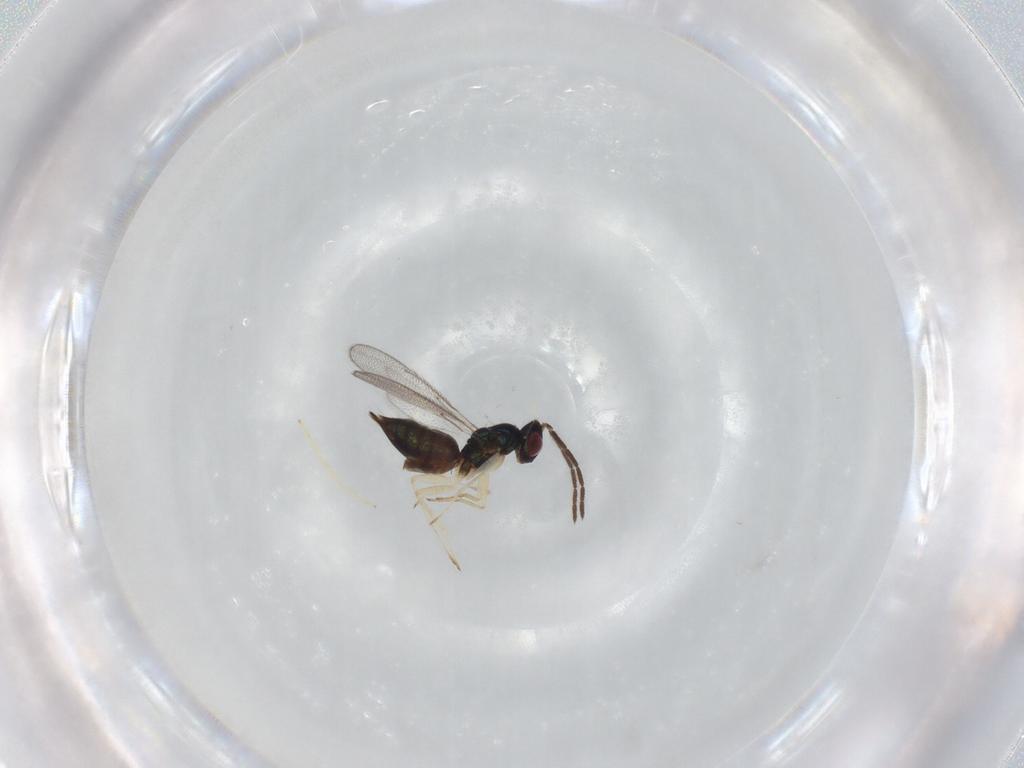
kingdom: Animalia
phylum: Arthropoda
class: Insecta
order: Hymenoptera
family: Eulophidae
